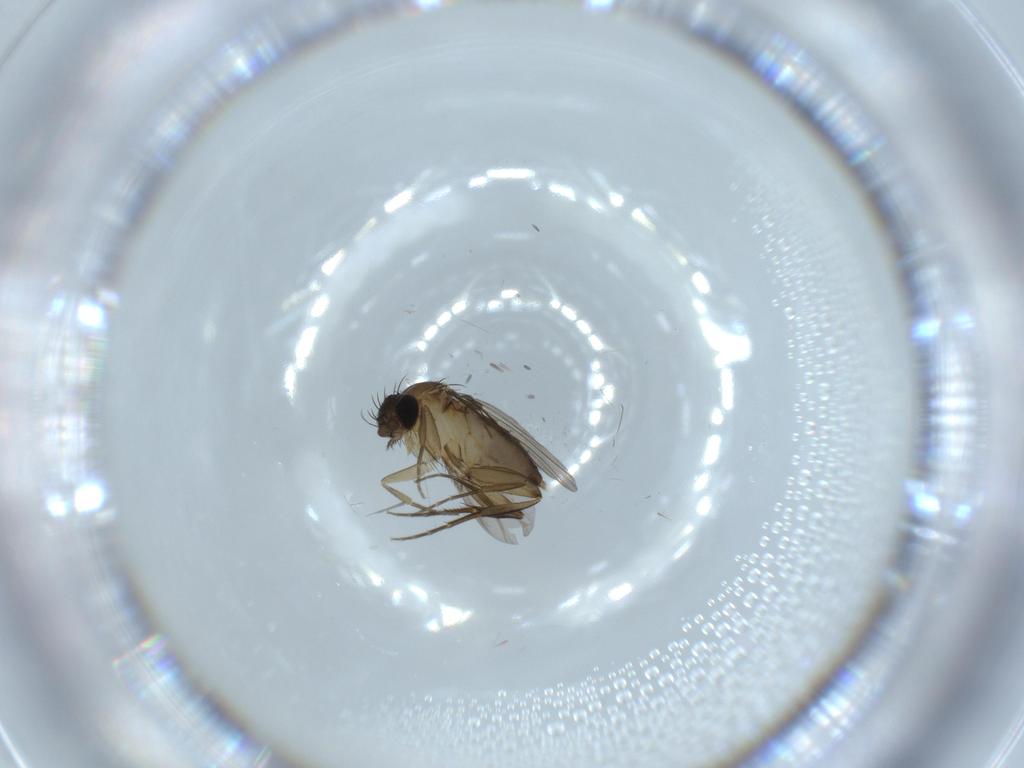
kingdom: Animalia
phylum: Arthropoda
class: Insecta
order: Diptera
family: Phoridae
